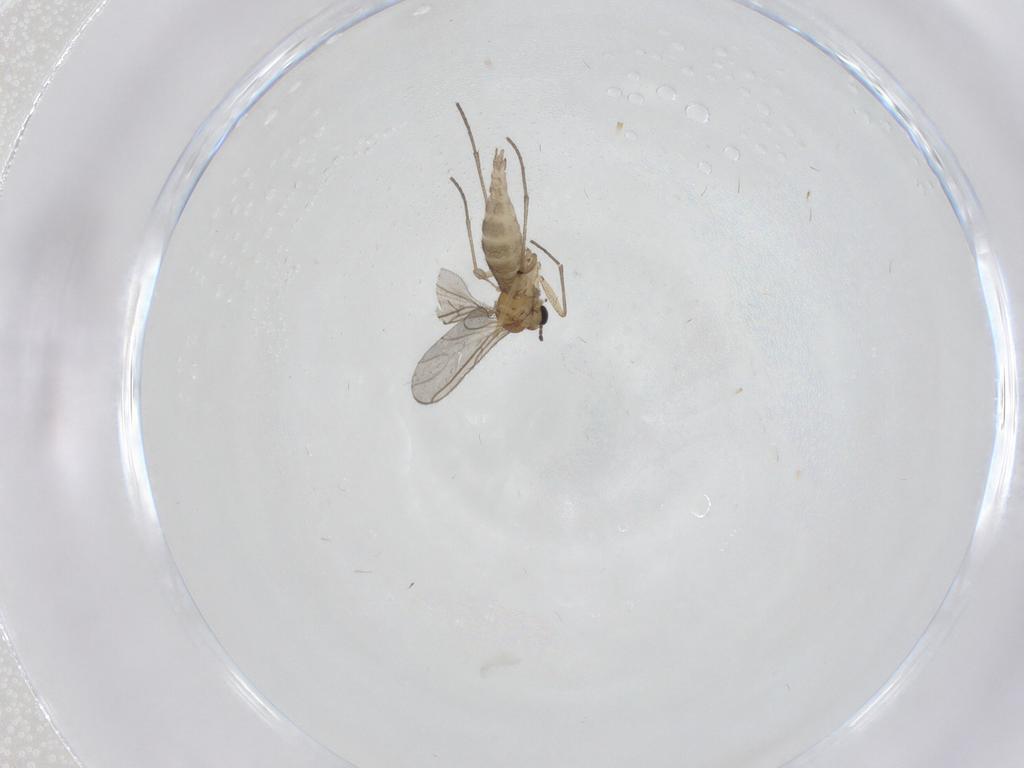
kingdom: Animalia
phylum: Arthropoda
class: Insecta
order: Diptera
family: Sciaridae
